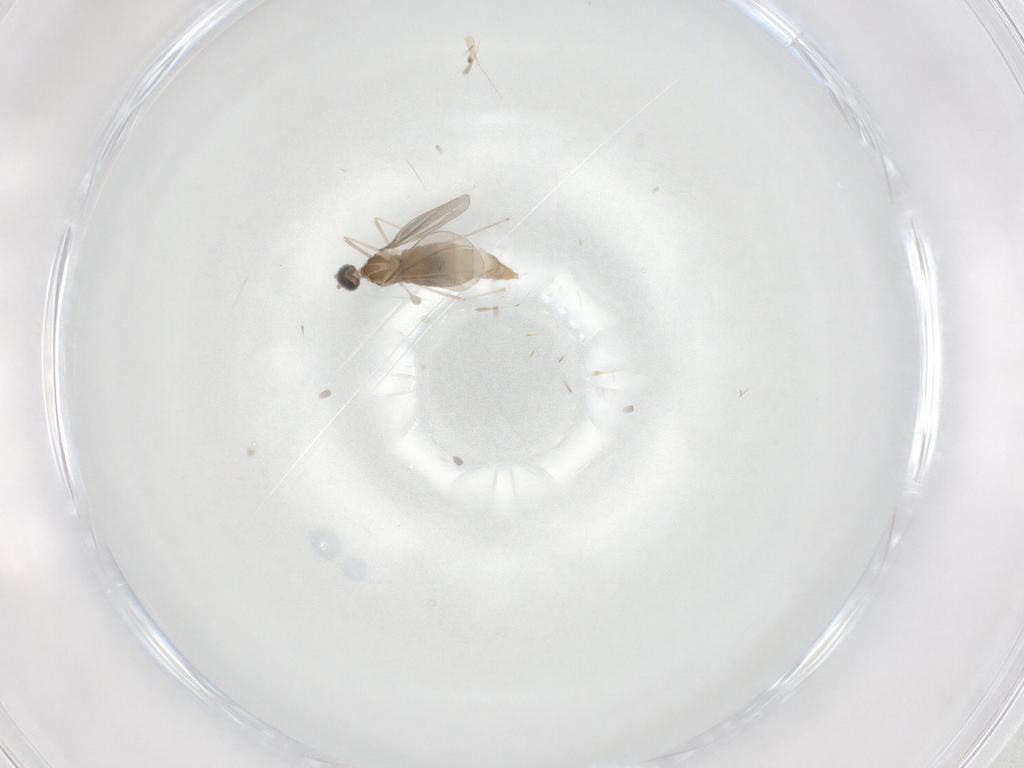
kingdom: Animalia
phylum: Arthropoda
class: Insecta
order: Diptera
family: Cecidomyiidae
